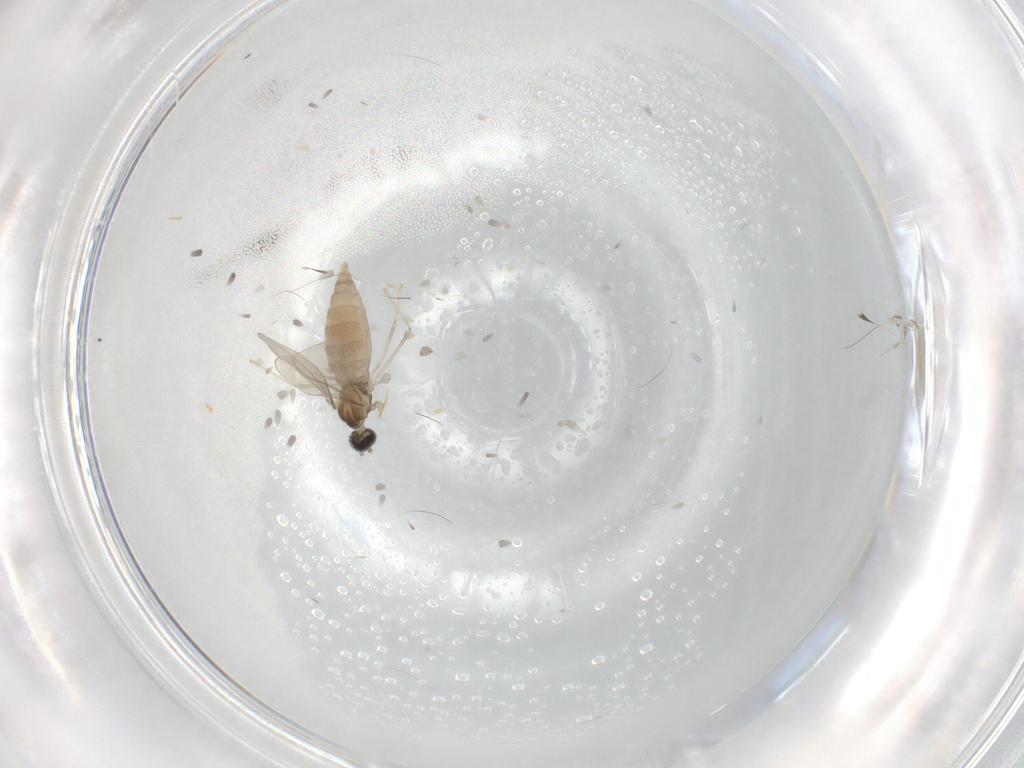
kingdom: Animalia
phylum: Arthropoda
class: Insecta
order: Diptera
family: Cecidomyiidae
